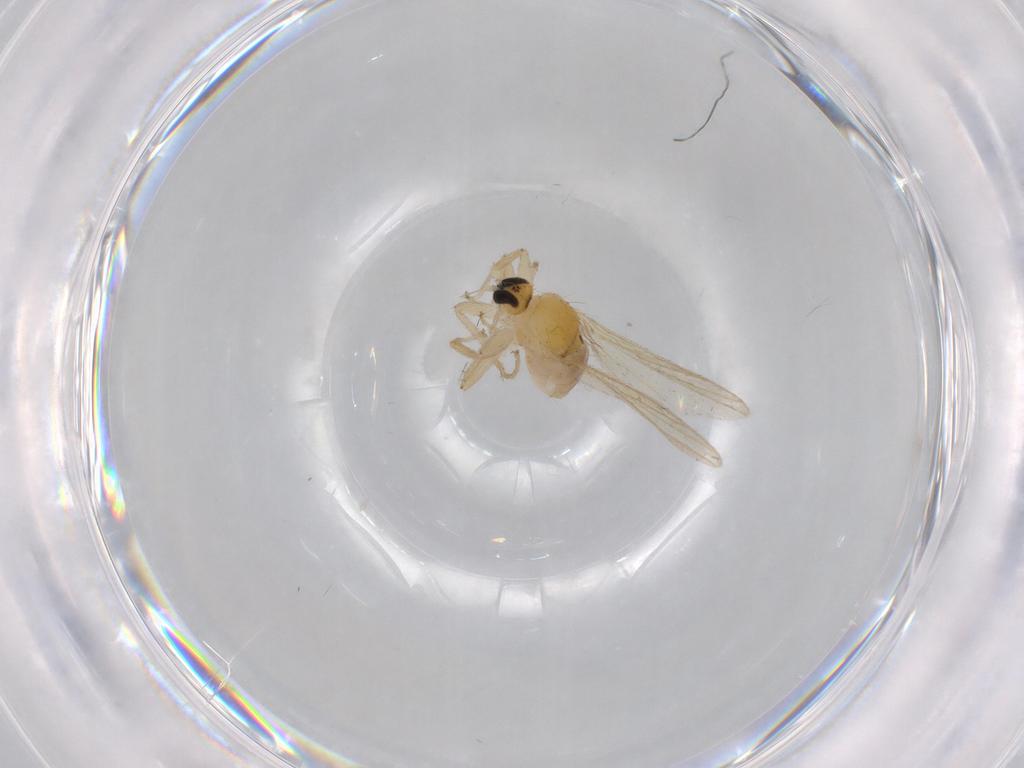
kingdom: Animalia
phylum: Arthropoda
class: Insecta
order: Diptera
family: Hybotidae
